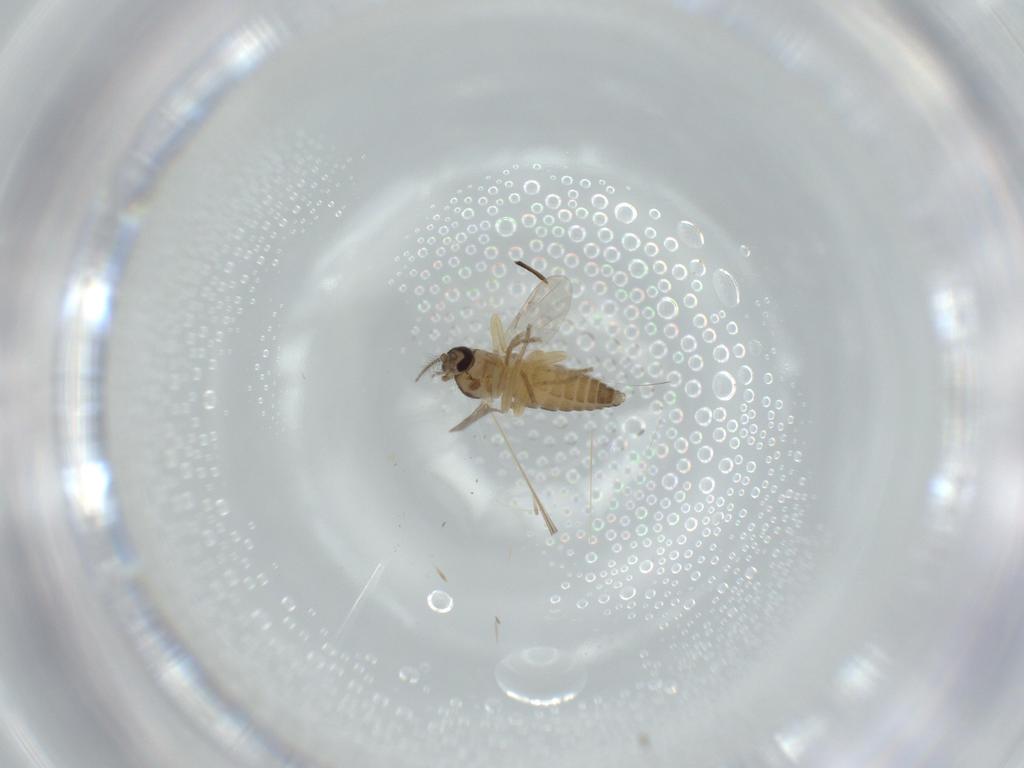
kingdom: Animalia
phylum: Arthropoda
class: Insecta
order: Diptera
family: Ceratopogonidae
